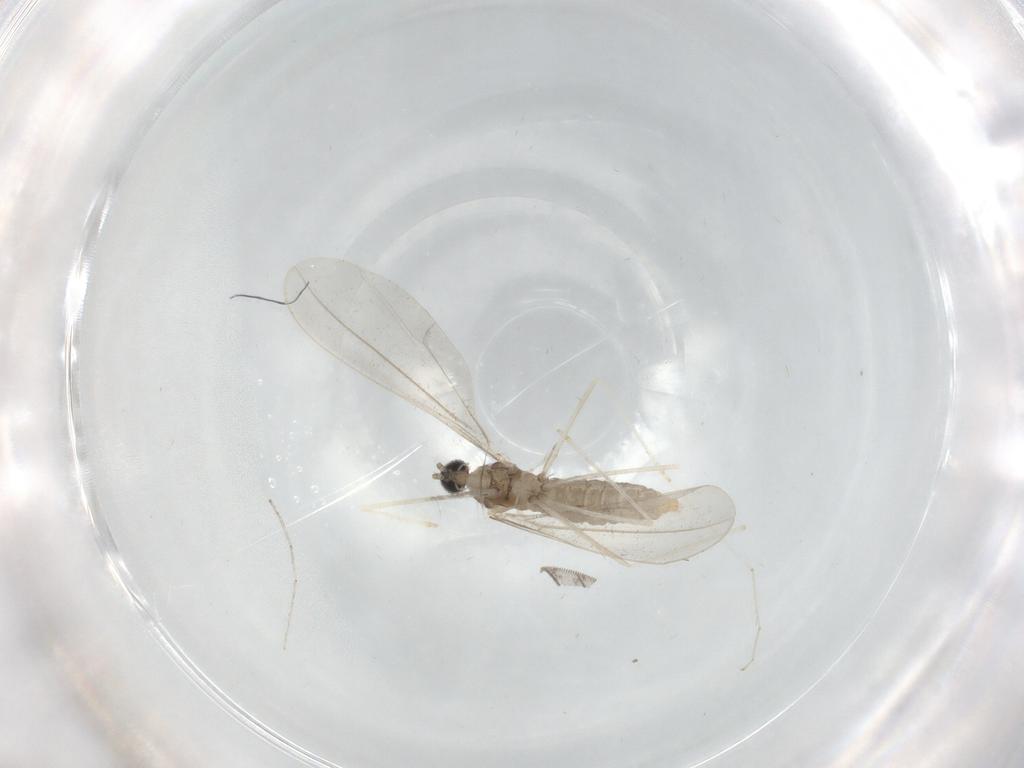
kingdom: Animalia
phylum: Arthropoda
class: Insecta
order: Diptera
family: Cecidomyiidae
